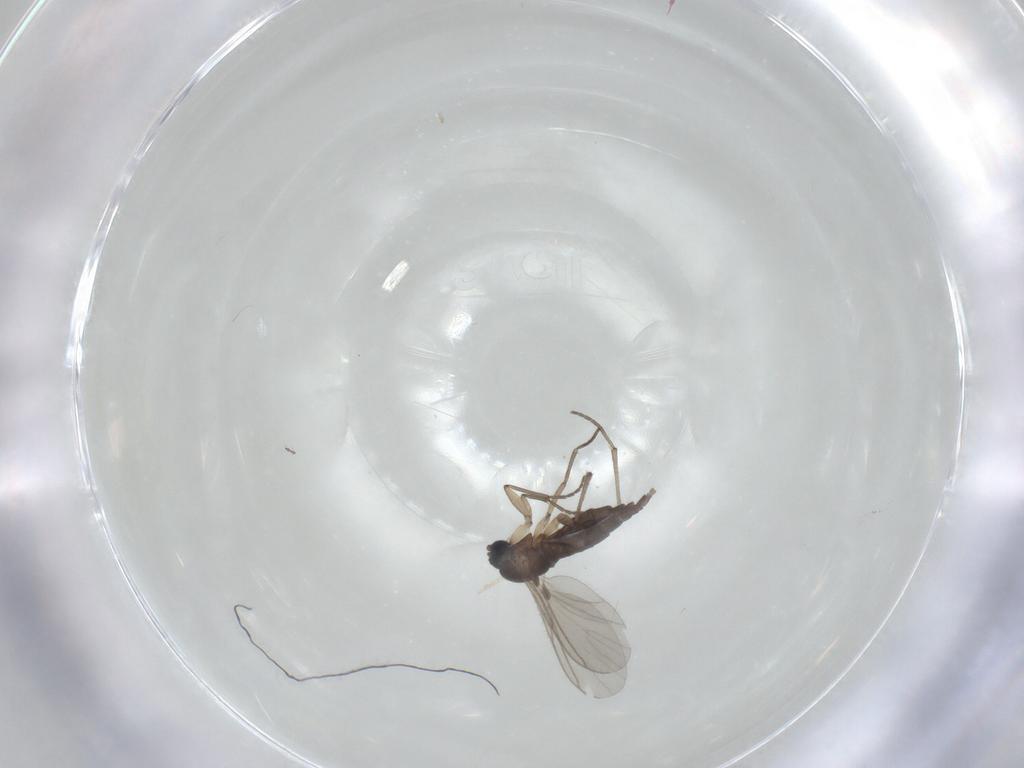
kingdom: Animalia
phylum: Arthropoda
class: Insecta
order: Diptera
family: Sciaridae
